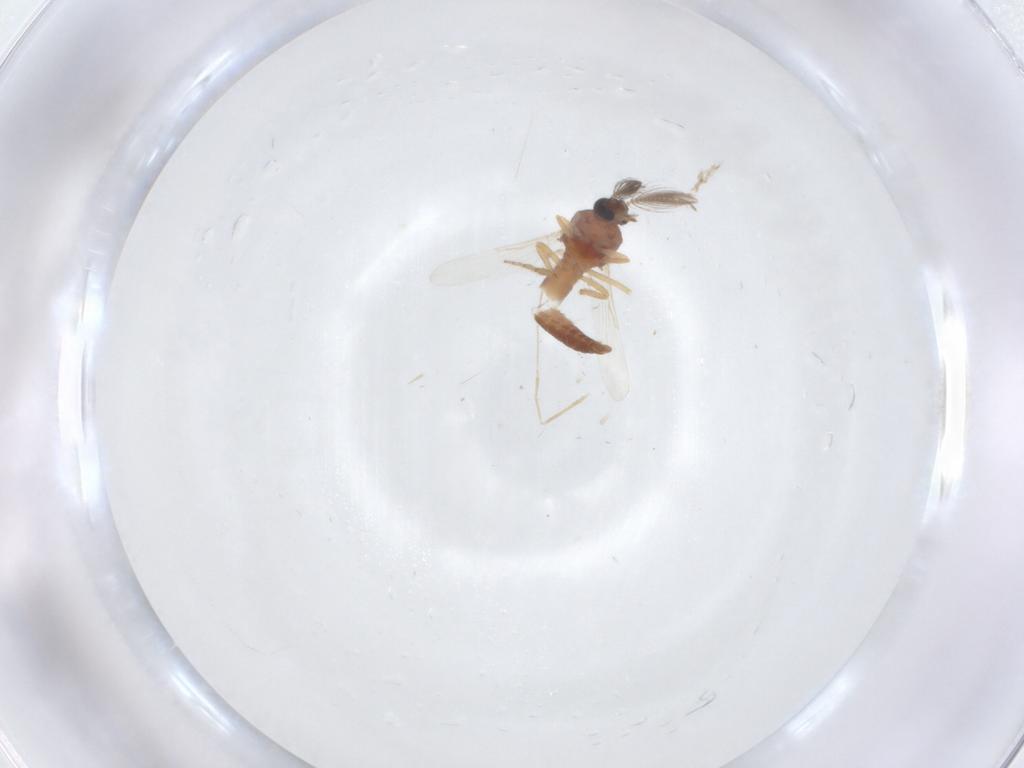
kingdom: Animalia
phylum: Arthropoda
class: Insecta
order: Diptera
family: Ceratopogonidae
